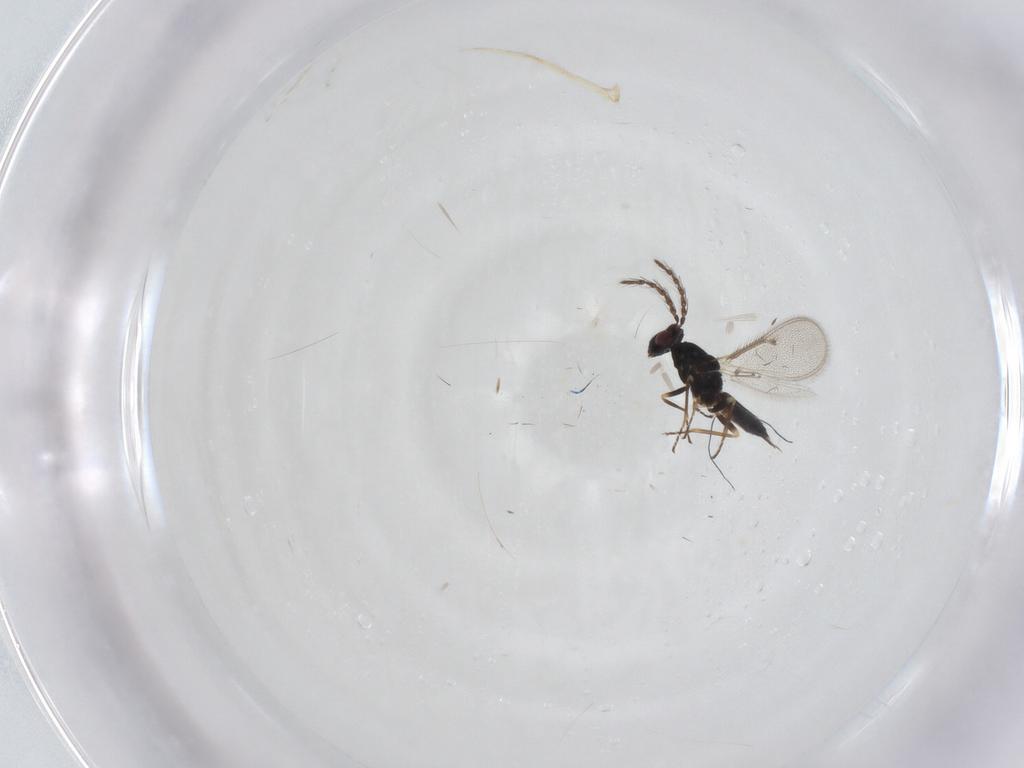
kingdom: Animalia
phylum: Arthropoda
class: Insecta
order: Hymenoptera
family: Eulophidae
